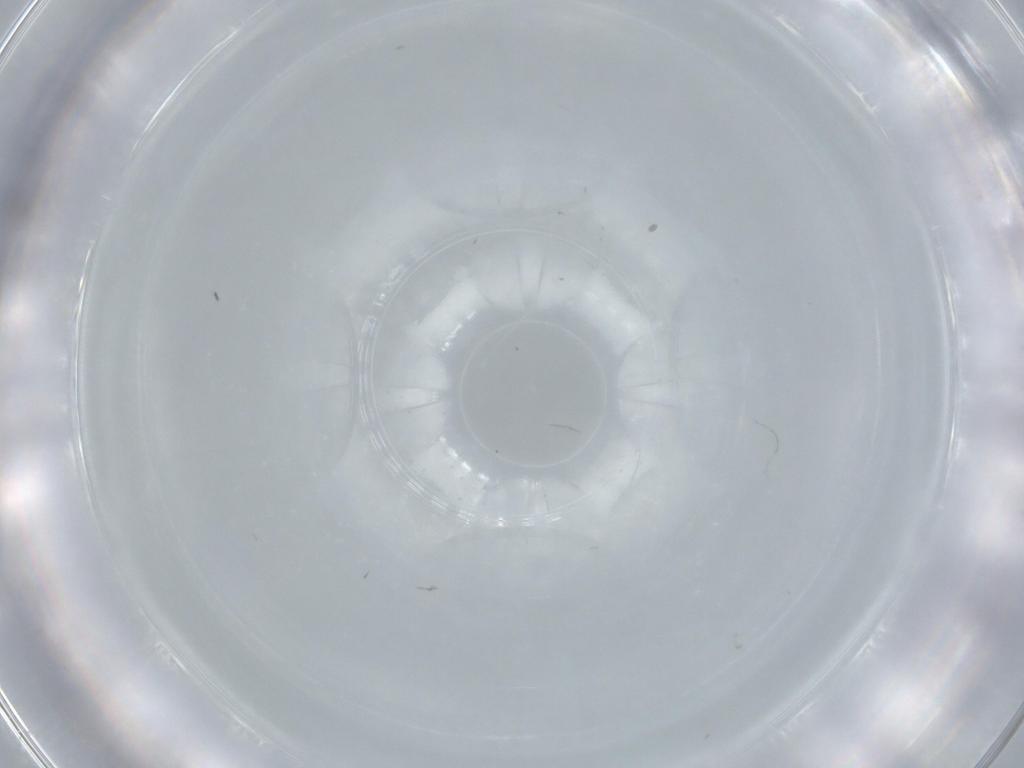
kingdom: Animalia
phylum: Arthropoda
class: Insecta
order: Diptera
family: Milichiidae
